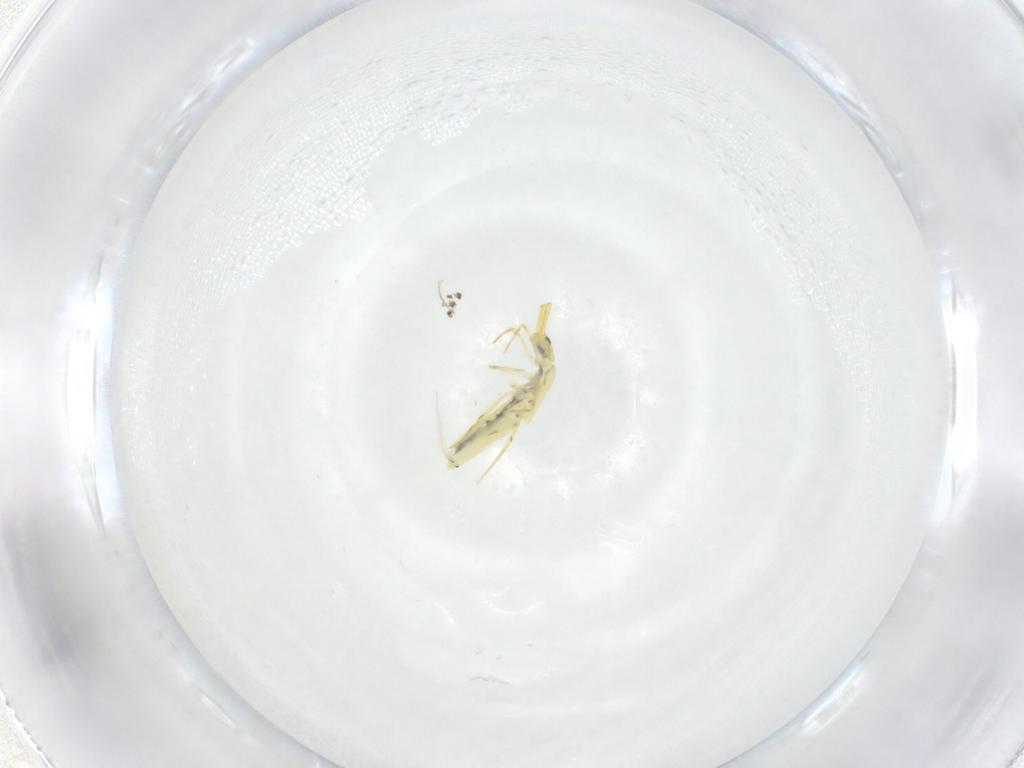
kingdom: Animalia
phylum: Arthropoda
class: Collembola
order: Entomobryomorpha
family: Entomobryidae
